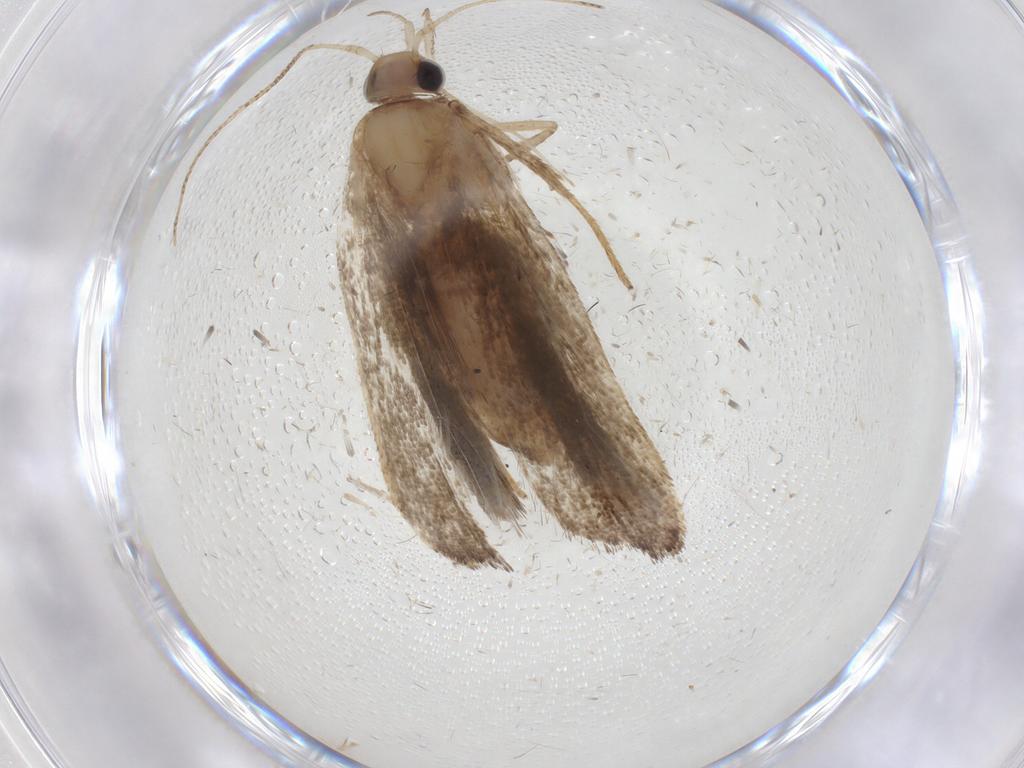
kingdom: Animalia
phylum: Arthropoda
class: Insecta
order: Lepidoptera
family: Gelechiidae
